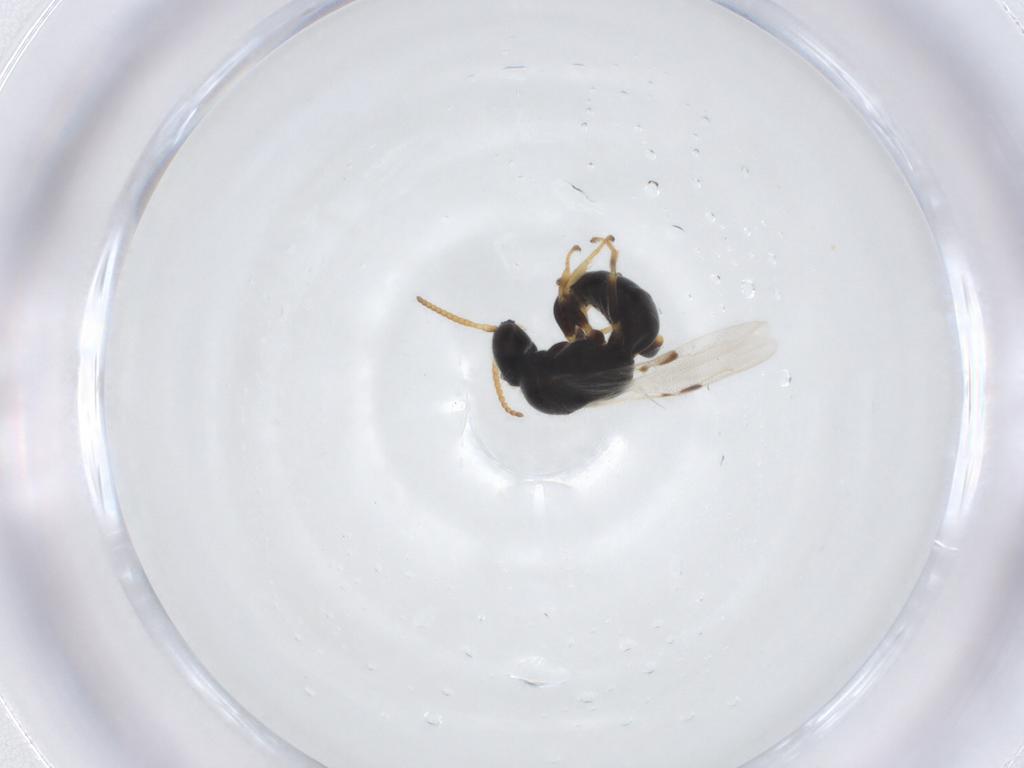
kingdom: Animalia
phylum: Arthropoda
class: Insecta
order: Hymenoptera
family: Bethylidae
